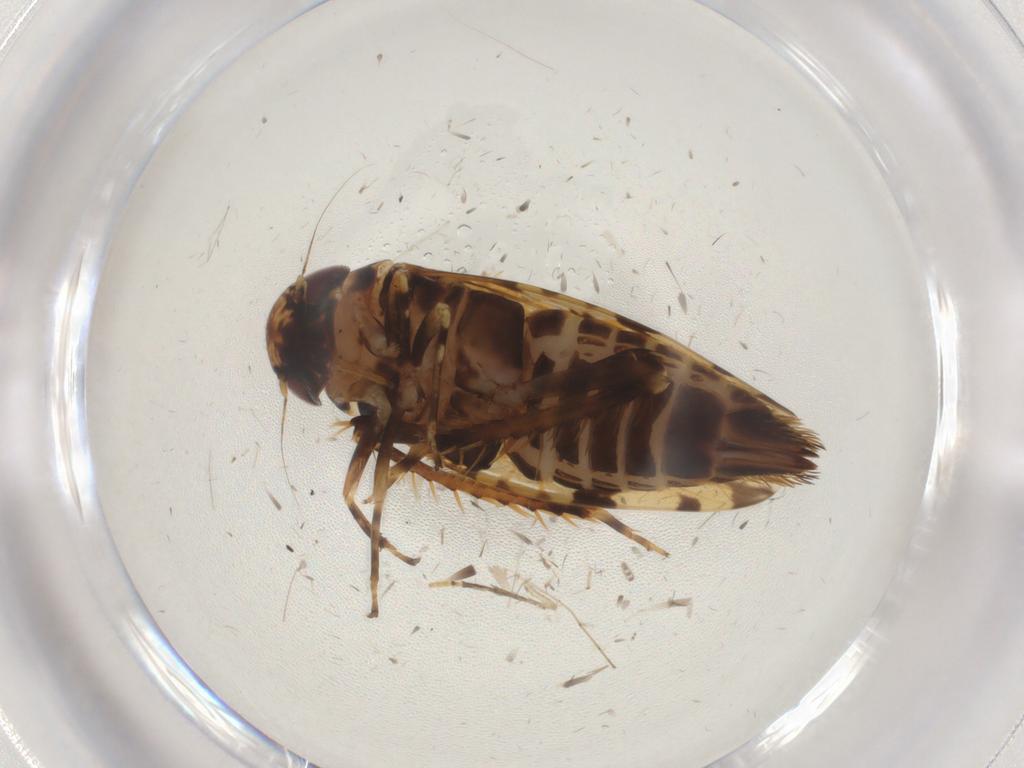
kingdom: Animalia
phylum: Arthropoda
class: Insecta
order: Hemiptera
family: Cicadellidae
